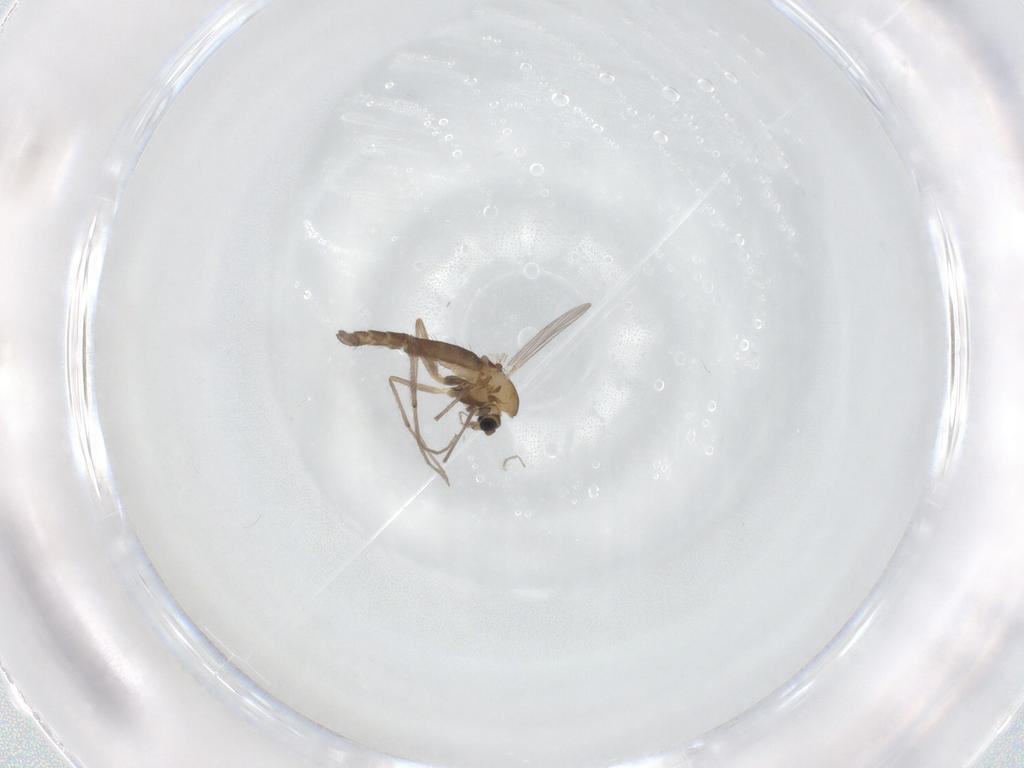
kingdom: Animalia
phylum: Arthropoda
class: Insecta
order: Diptera
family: Chironomidae
